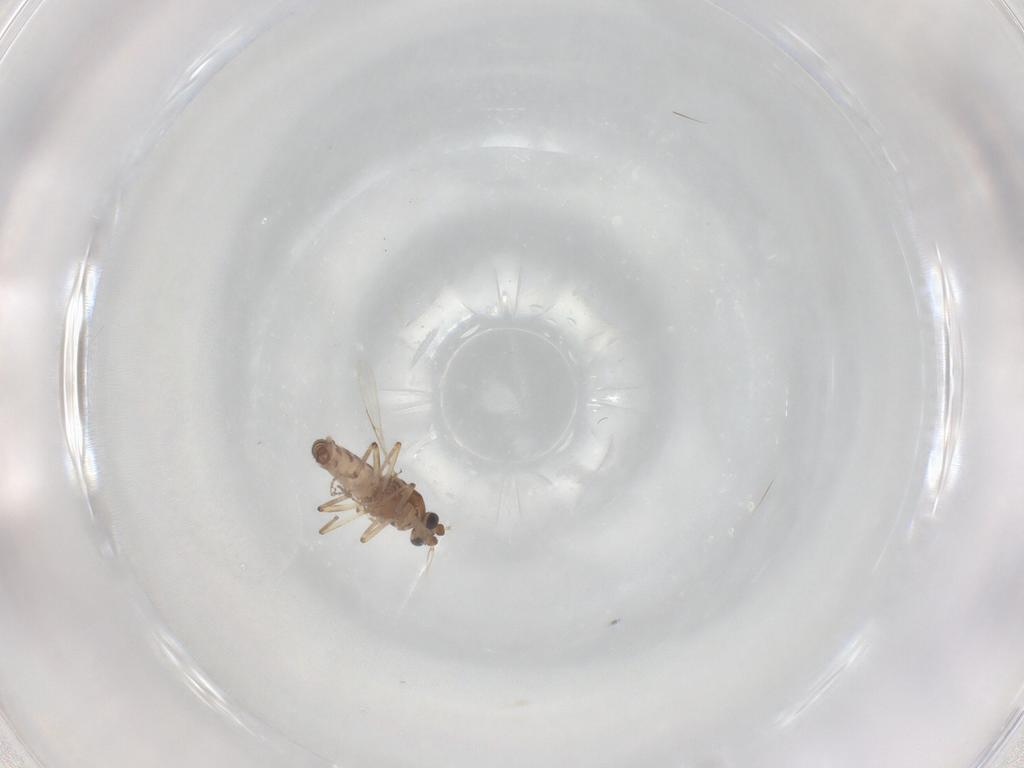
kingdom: Animalia
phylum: Arthropoda
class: Insecta
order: Diptera
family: Ceratopogonidae
